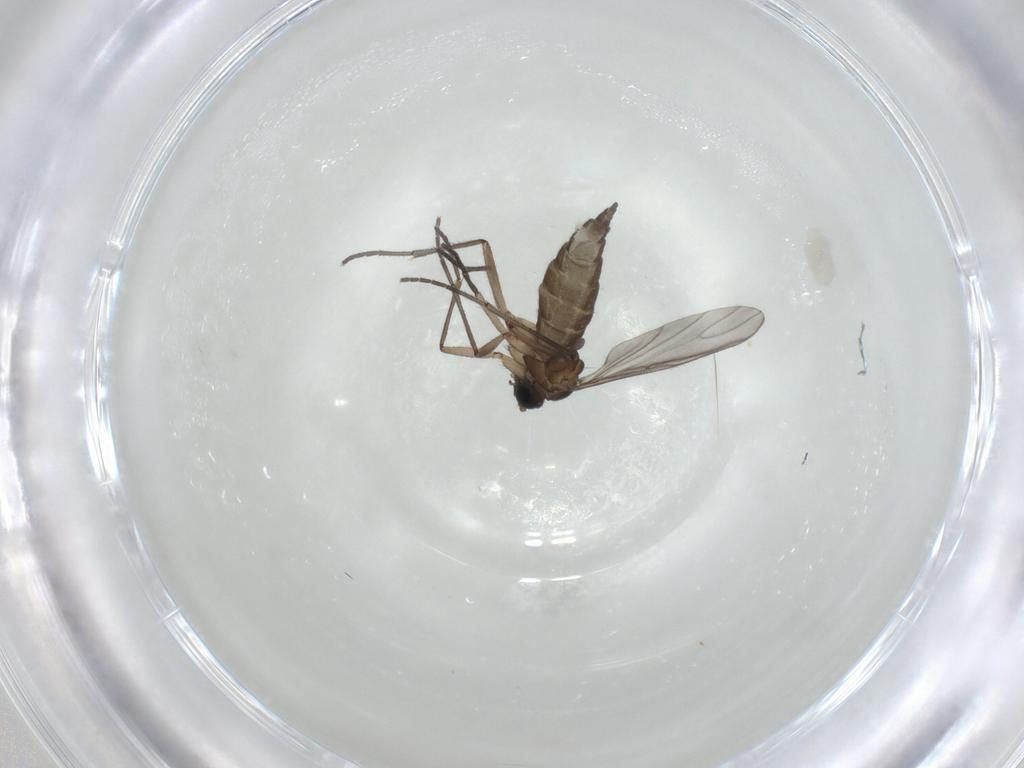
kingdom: Animalia
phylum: Arthropoda
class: Insecta
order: Diptera
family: Sciaridae
